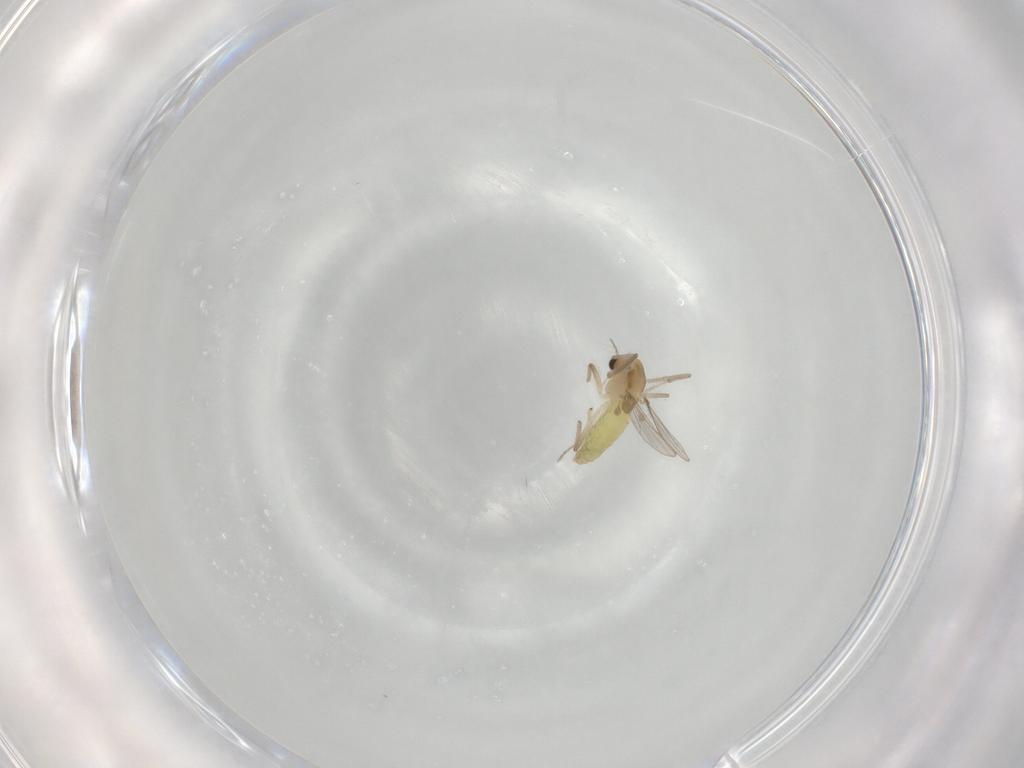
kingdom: Animalia
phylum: Arthropoda
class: Insecta
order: Diptera
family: Chironomidae
